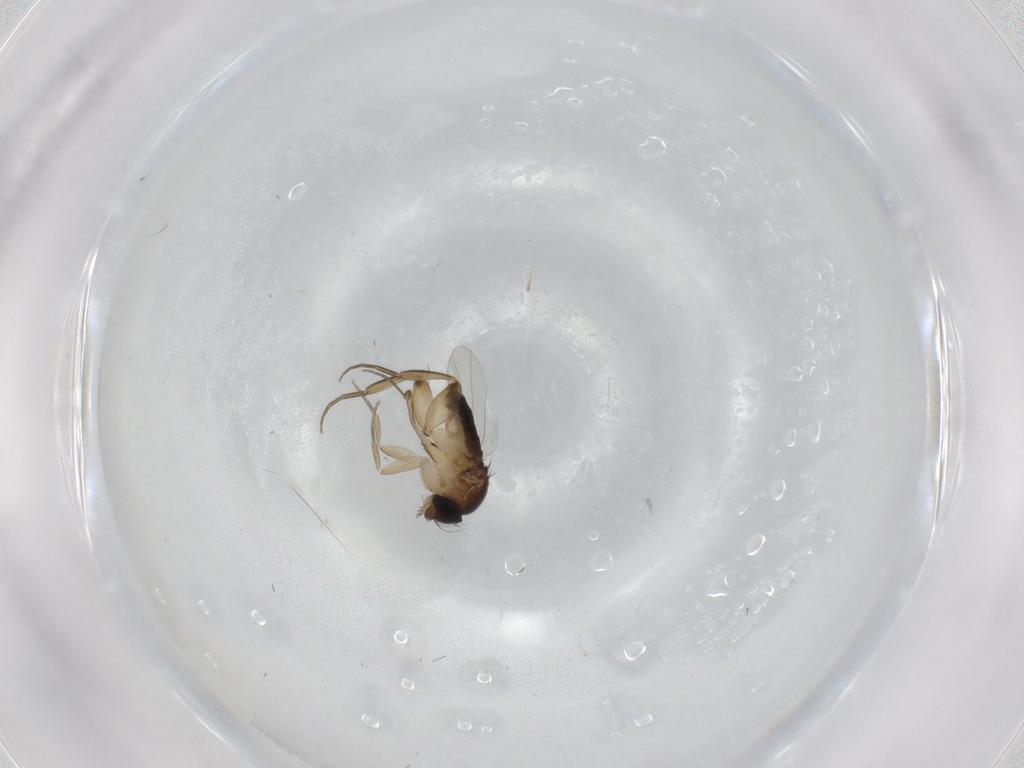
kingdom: Animalia
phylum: Arthropoda
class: Insecta
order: Diptera
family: Phoridae
